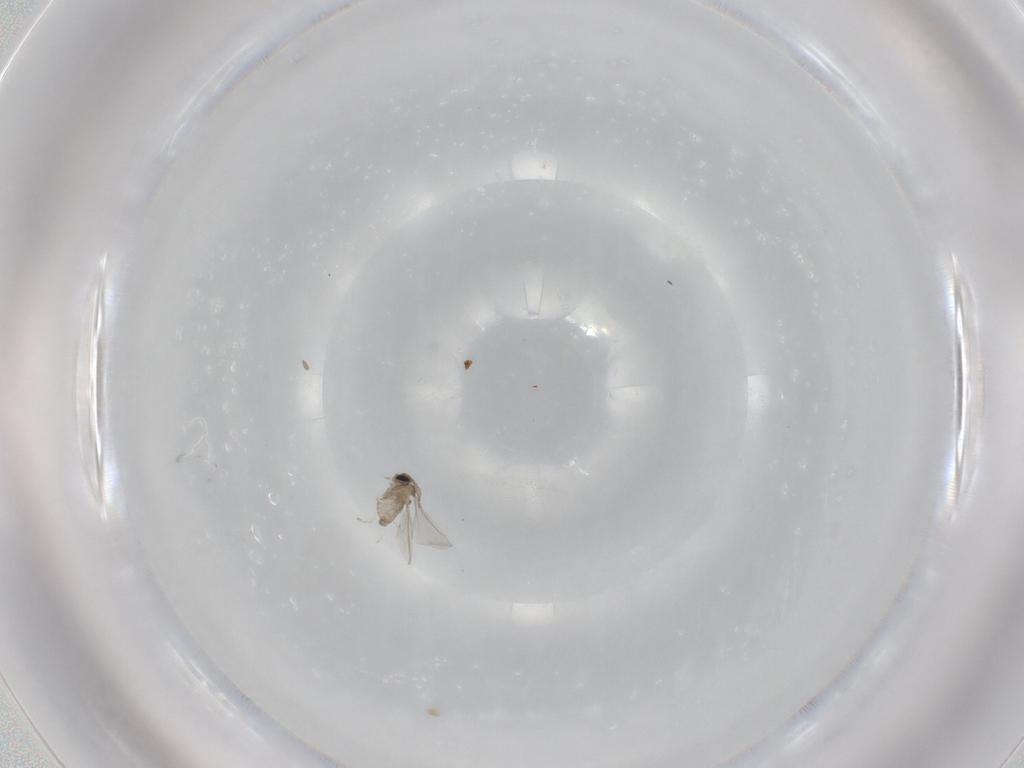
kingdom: Animalia
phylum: Arthropoda
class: Insecta
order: Diptera
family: Cecidomyiidae
